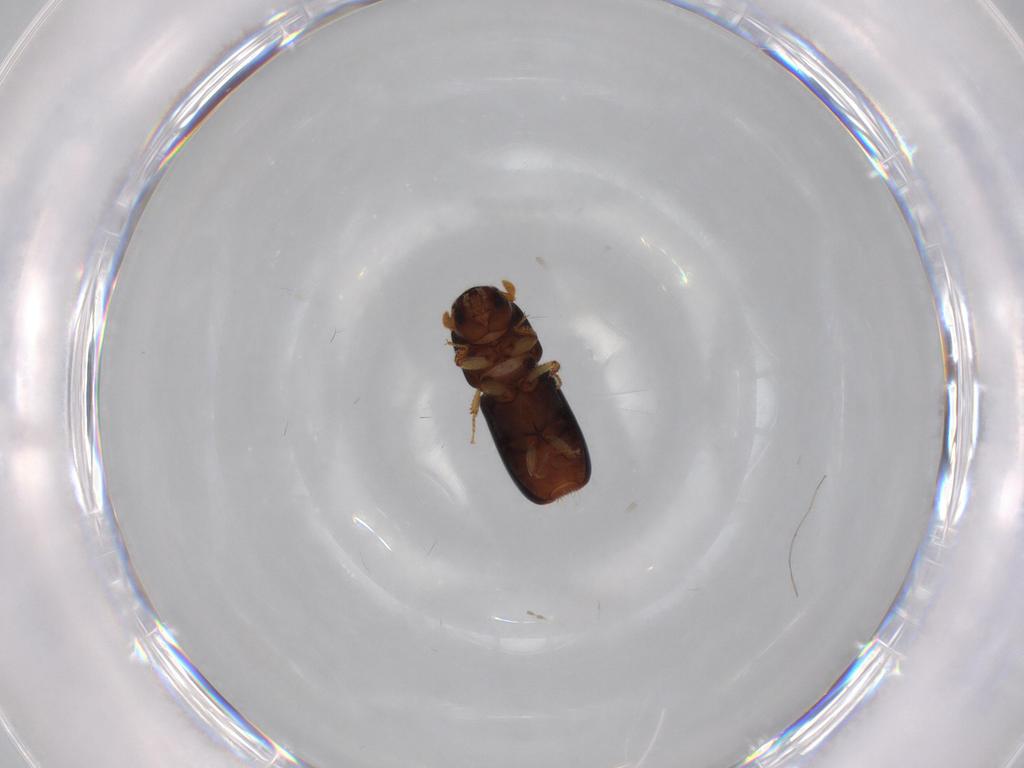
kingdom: Animalia
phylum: Arthropoda
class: Insecta
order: Coleoptera
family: Curculionidae
